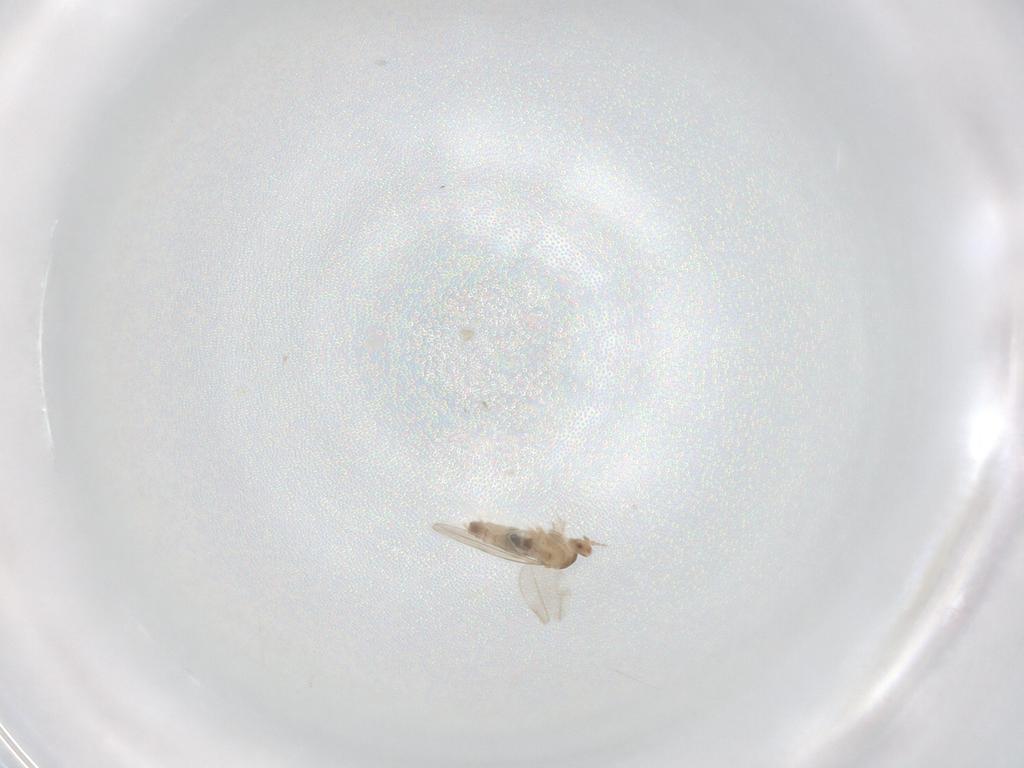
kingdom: Animalia
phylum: Arthropoda
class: Insecta
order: Diptera
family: Cecidomyiidae
